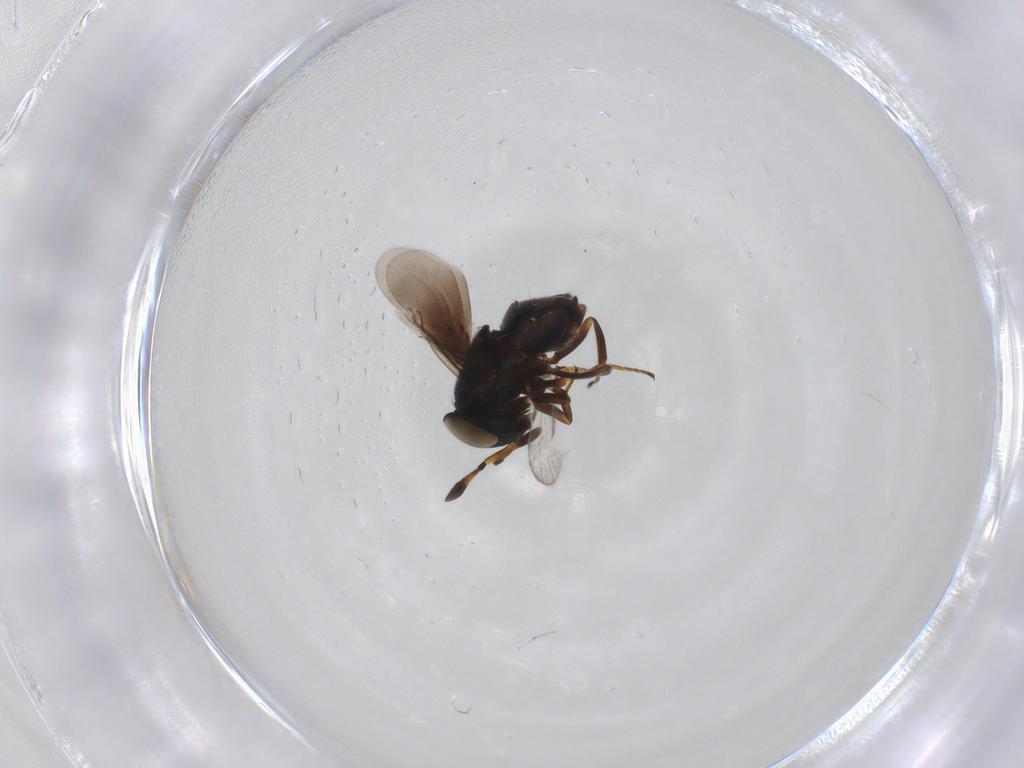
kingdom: Animalia
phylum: Arthropoda
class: Insecta
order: Hymenoptera
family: Encyrtidae
